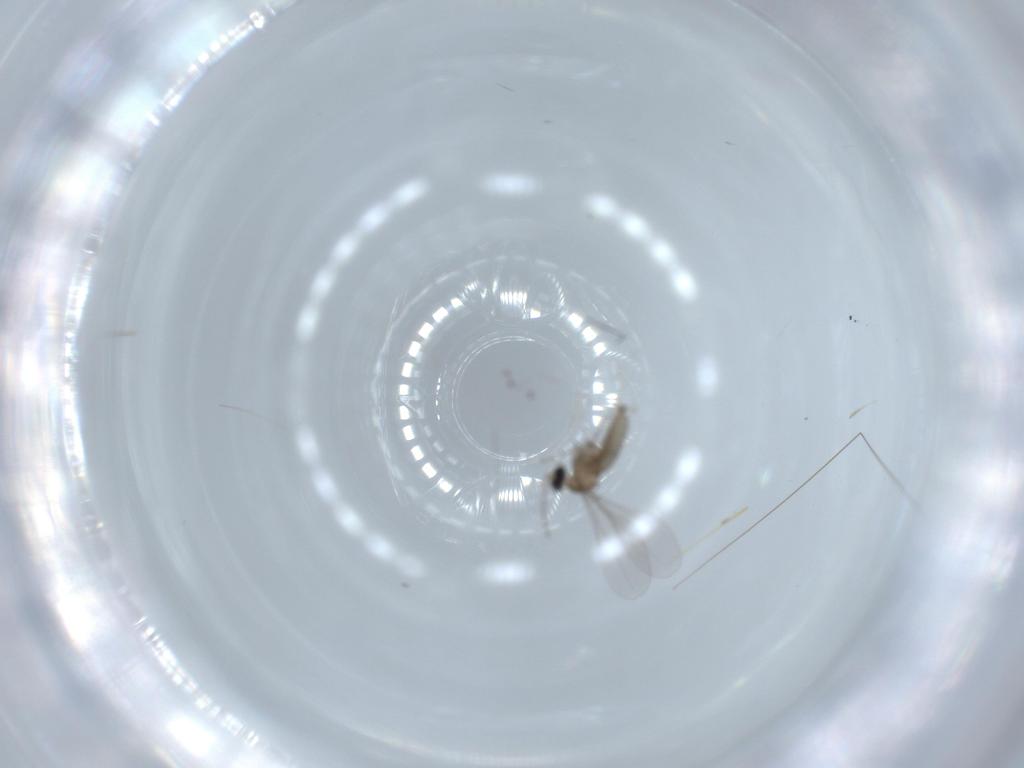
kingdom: Animalia
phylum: Arthropoda
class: Insecta
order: Diptera
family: Cecidomyiidae
